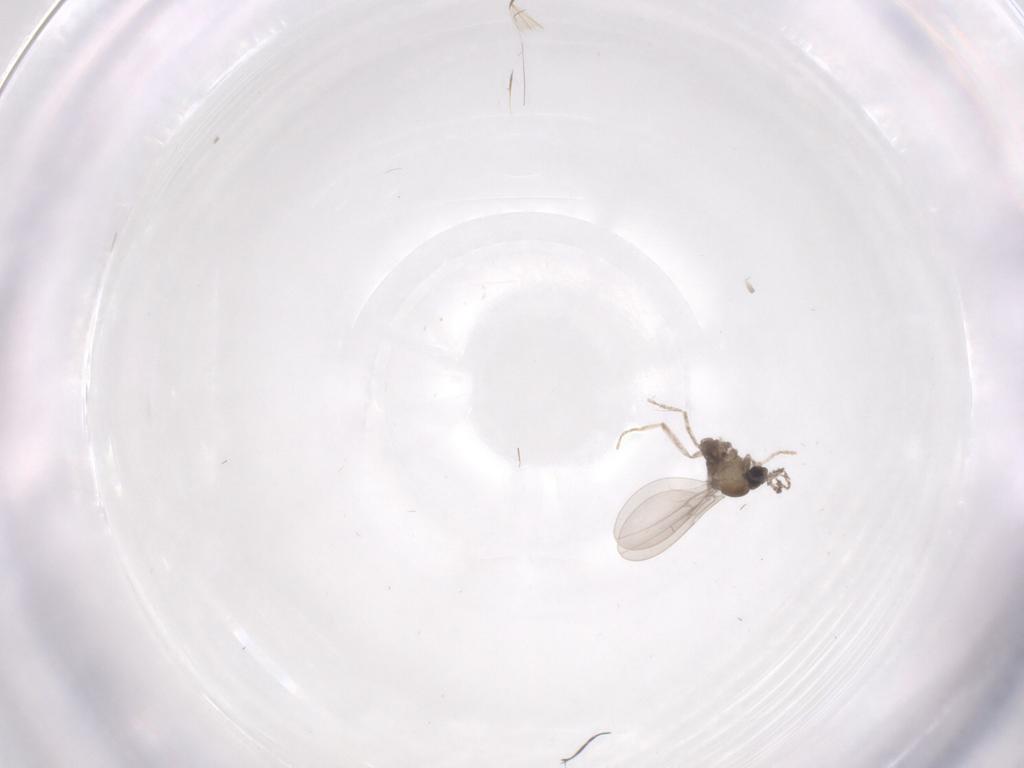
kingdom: Animalia
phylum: Arthropoda
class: Insecta
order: Diptera
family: Cecidomyiidae
